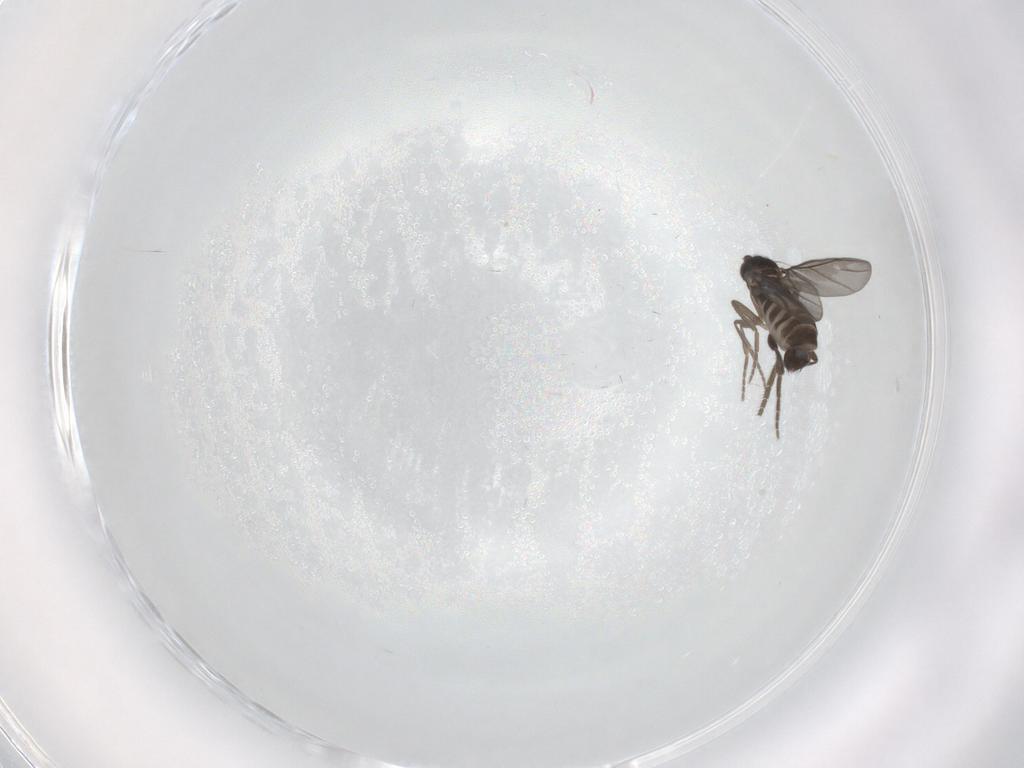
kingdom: Animalia
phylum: Arthropoda
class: Insecta
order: Diptera
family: Phoridae
